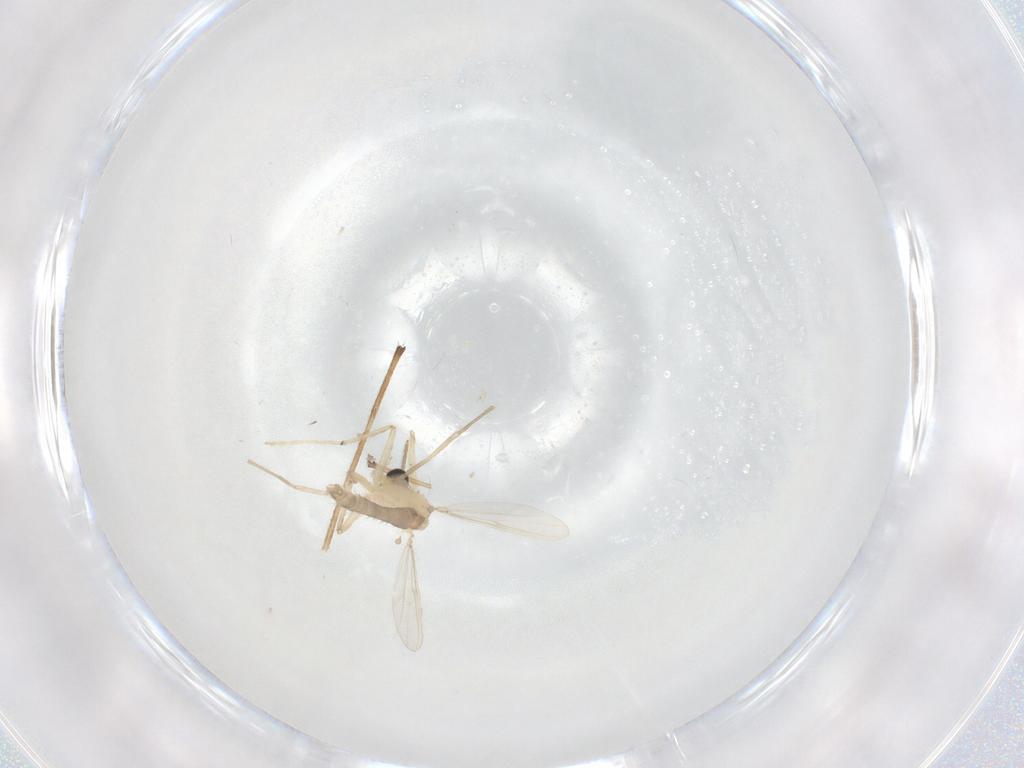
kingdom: Animalia
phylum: Arthropoda
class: Insecta
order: Diptera
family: Chironomidae
